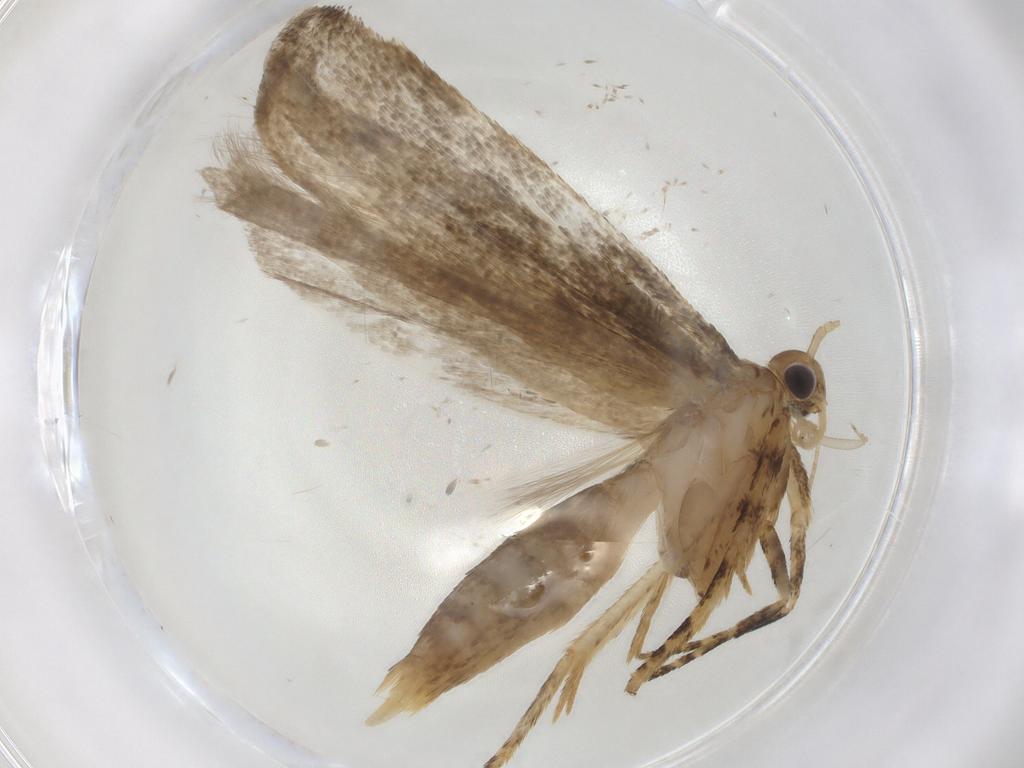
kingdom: Animalia
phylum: Arthropoda
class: Insecta
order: Lepidoptera
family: Gelechiidae
